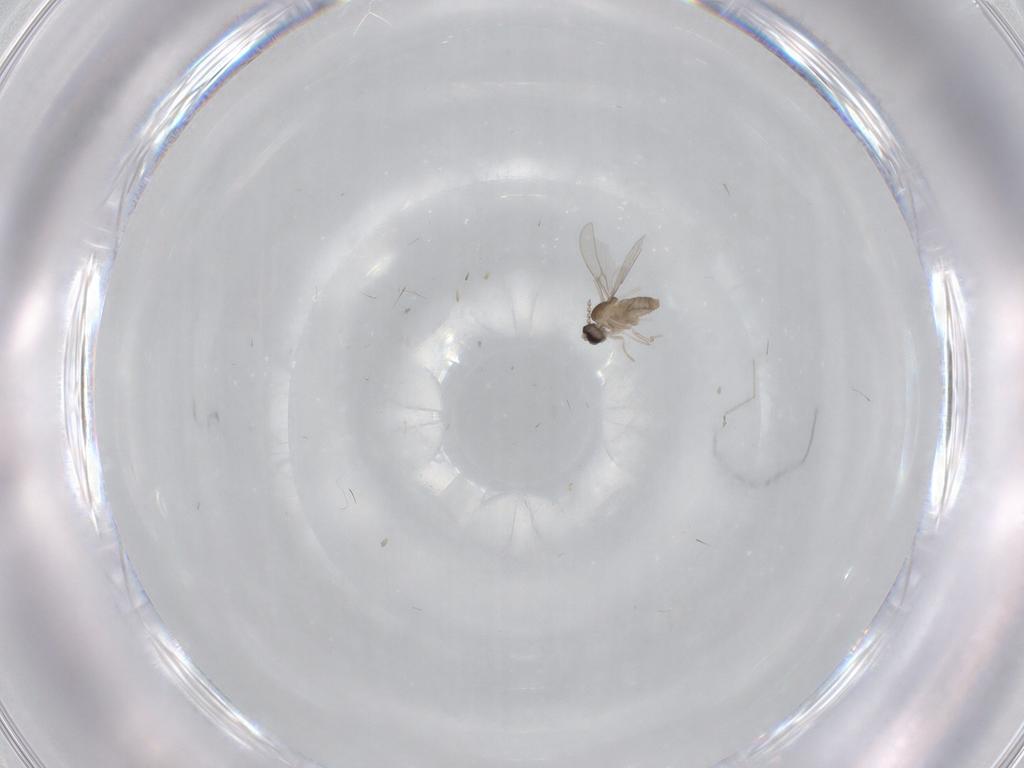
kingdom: Animalia
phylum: Arthropoda
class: Insecta
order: Diptera
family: Cecidomyiidae
